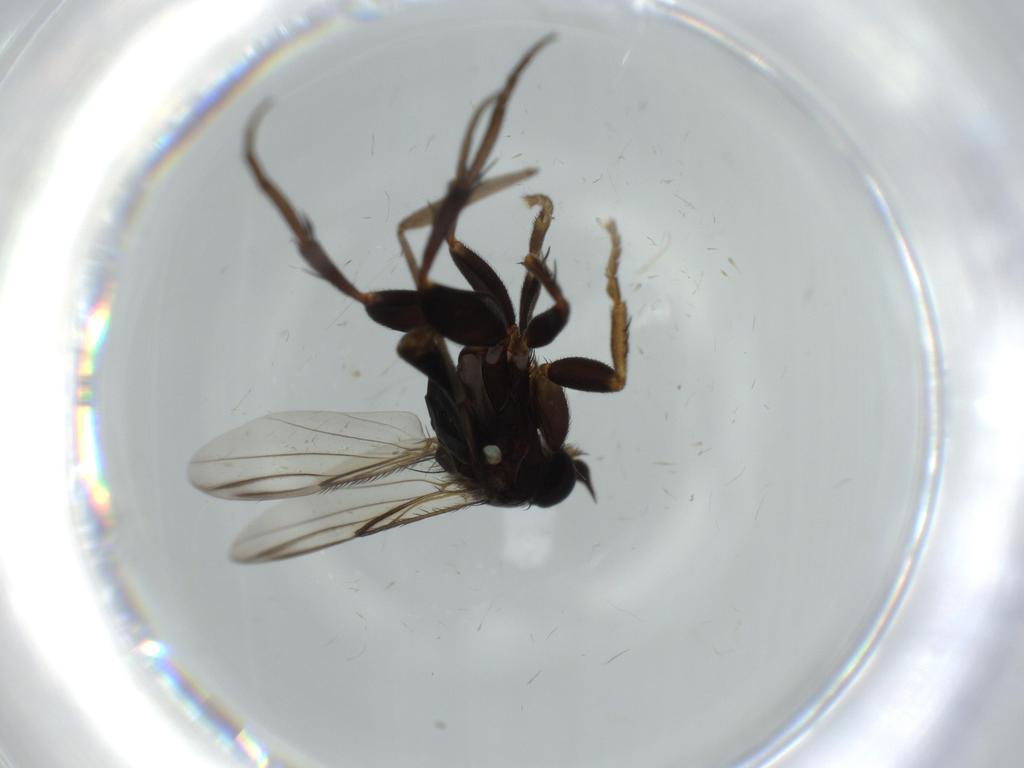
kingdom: Animalia
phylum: Arthropoda
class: Insecta
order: Diptera
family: Phoridae
